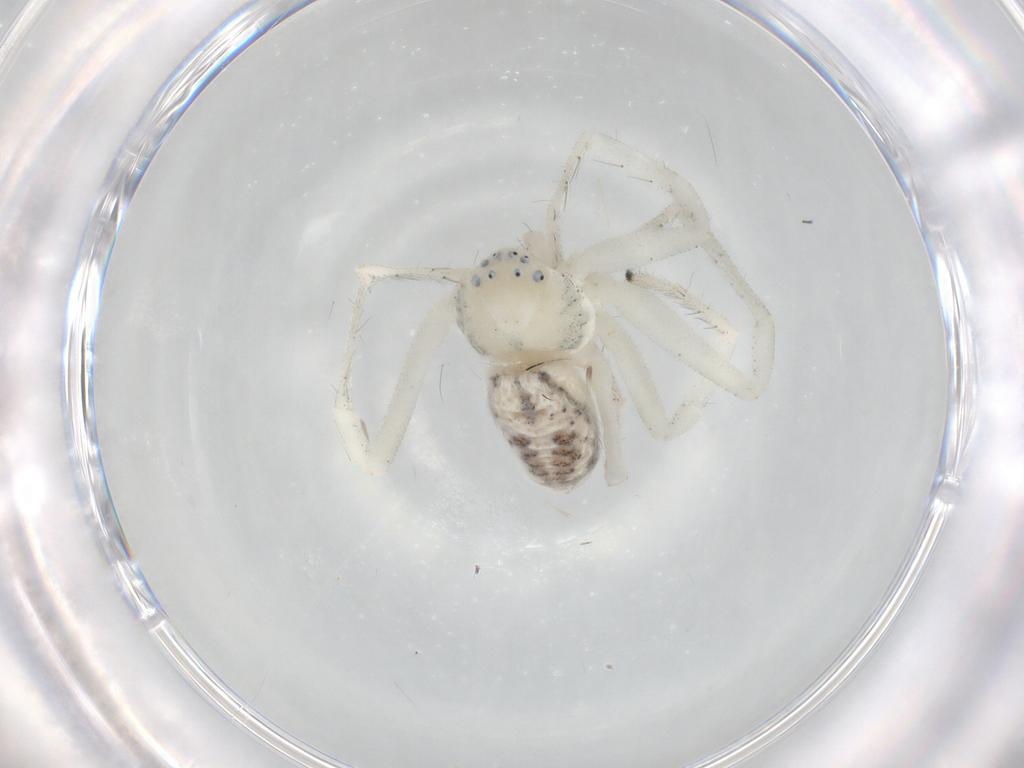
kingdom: Animalia
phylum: Arthropoda
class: Arachnida
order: Araneae
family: Philodromidae
